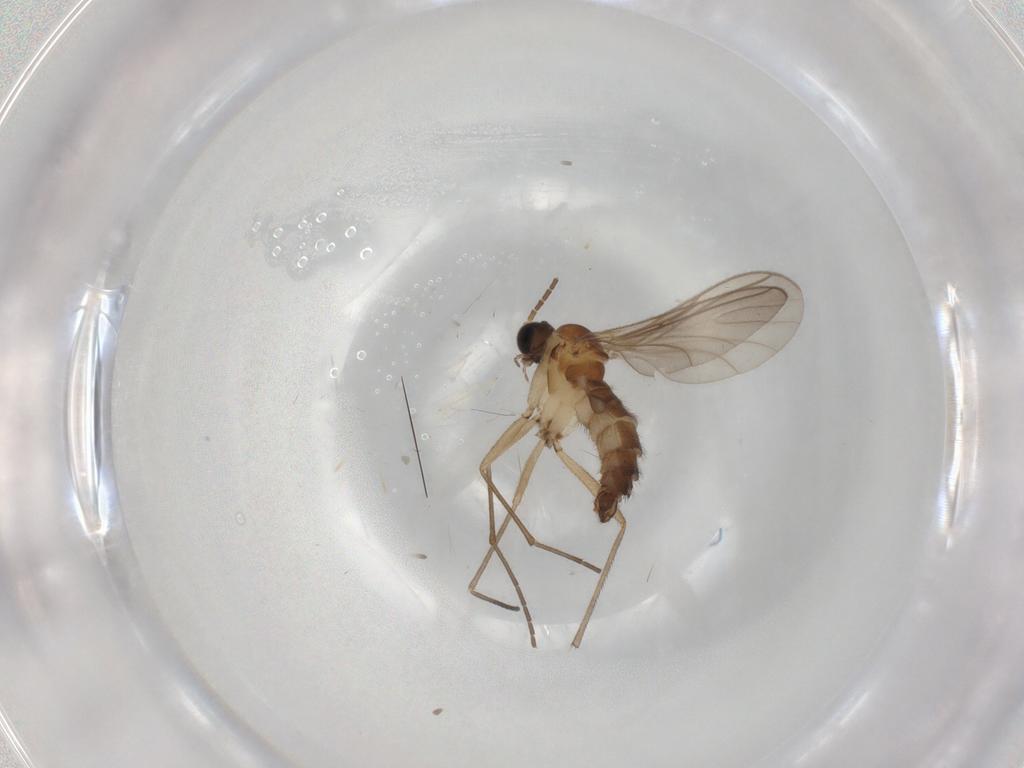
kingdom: Animalia
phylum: Arthropoda
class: Insecta
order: Diptera
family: Sciaridae
